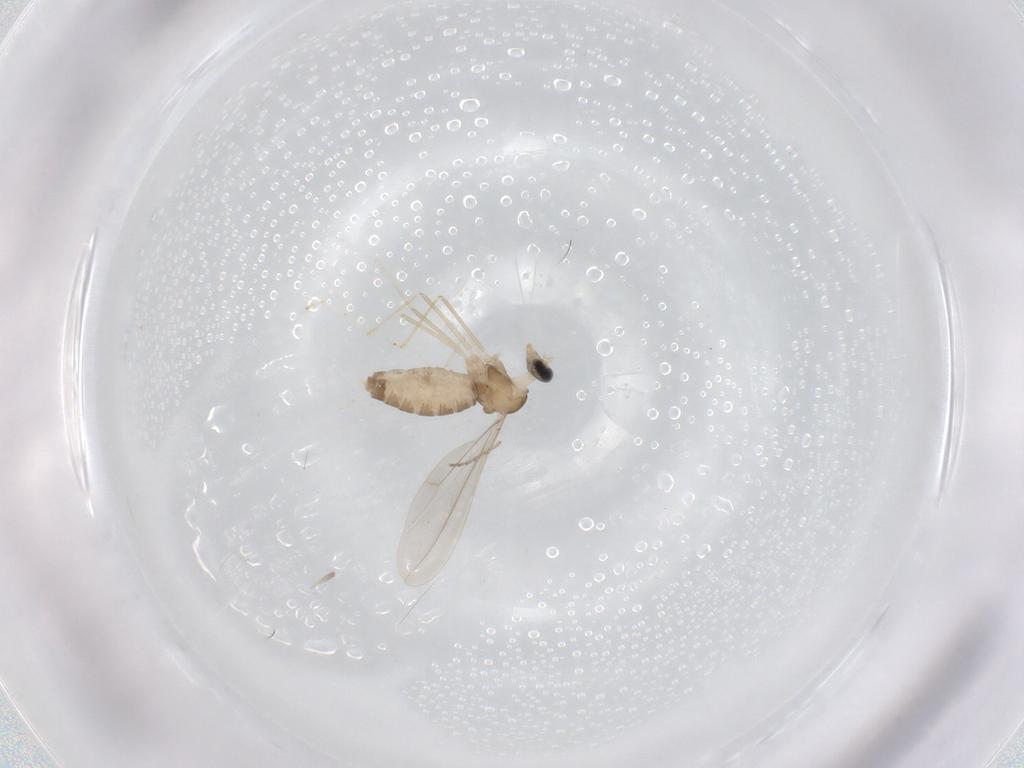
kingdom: Animalia
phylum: Arthropoda
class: Insecta
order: Diptera
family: Cecidomyiidae
